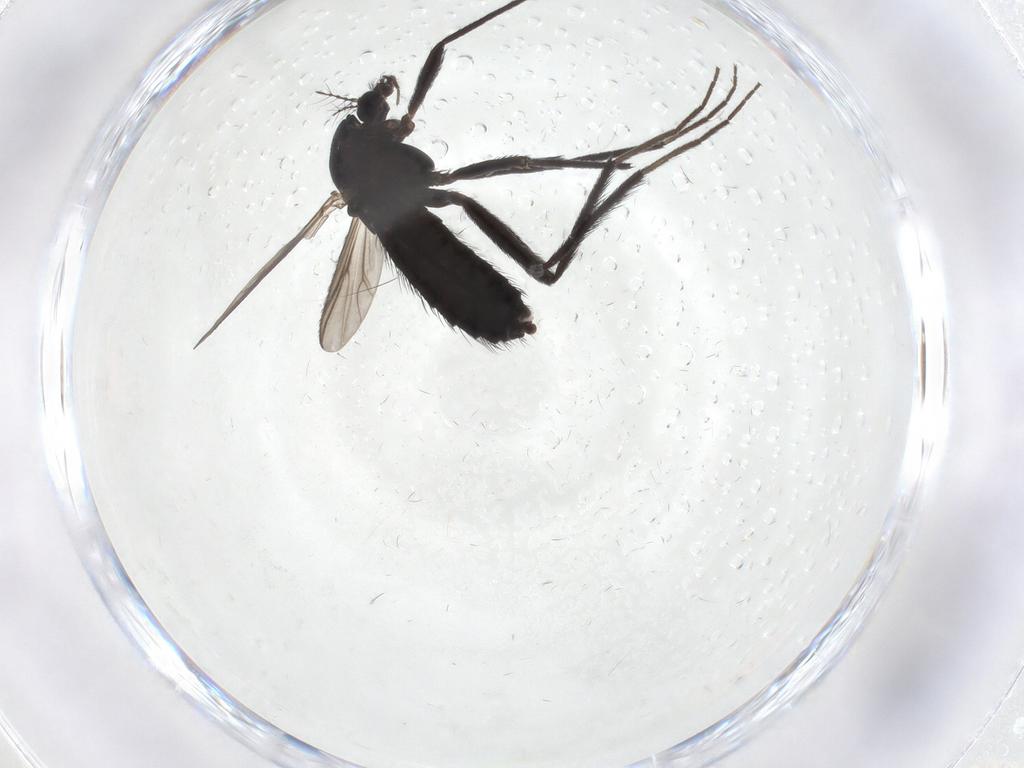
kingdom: Animalia
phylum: Arthropoda
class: Insecta
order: Diptera
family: Chironomidae
